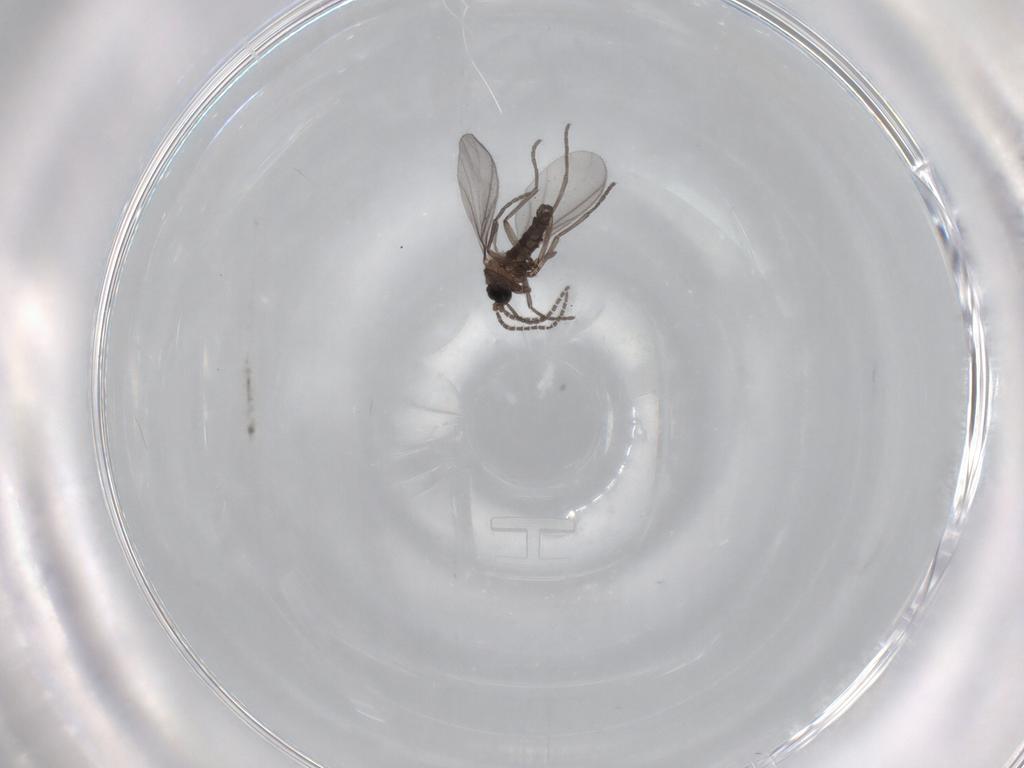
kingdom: Animalia
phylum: Arthropoda
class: Insecta
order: Diptera
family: Sciaridae
